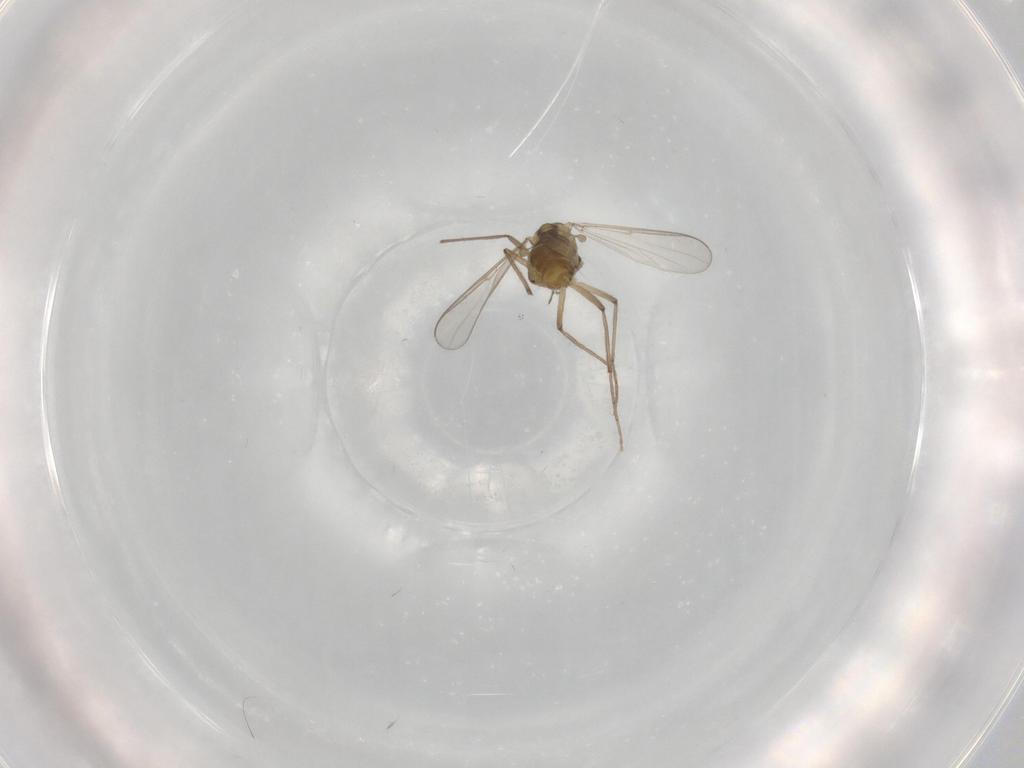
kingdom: Animalia
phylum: Arthropoda
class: Insecta
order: Diptera
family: Chironomidae
